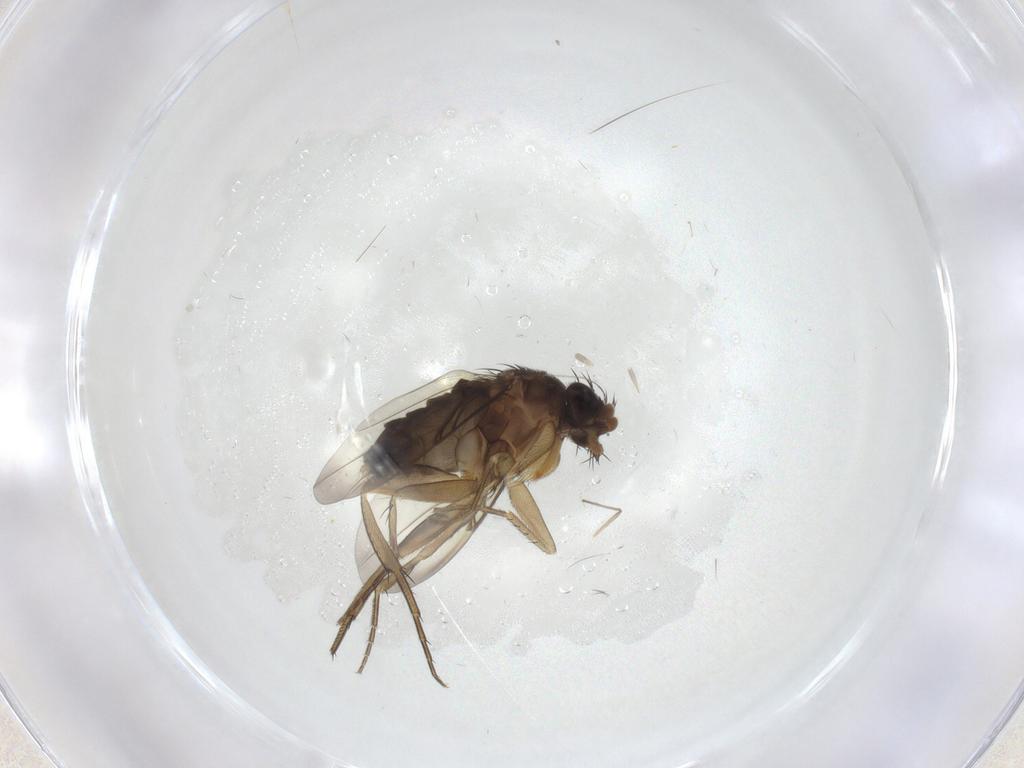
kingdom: Animalia
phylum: Arthropoda
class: Insecta
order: Diptera
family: Phoridae
